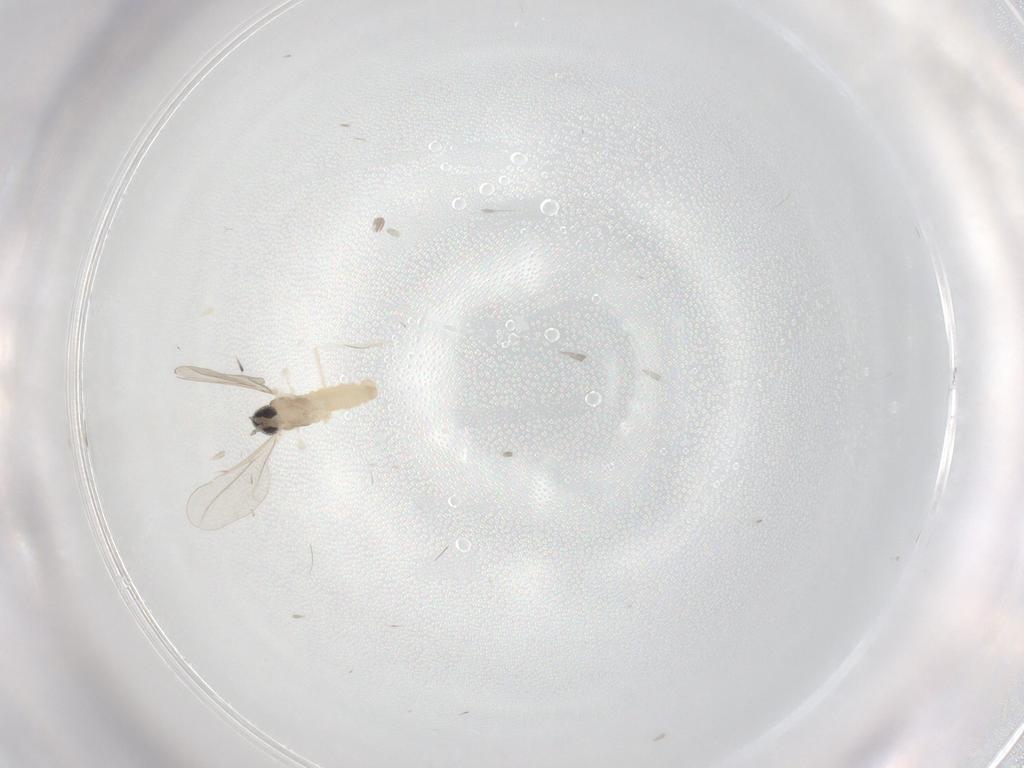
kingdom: Animalia
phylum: Arthropoda
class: Insecta
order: Diptera
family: Cecidomyiidae
